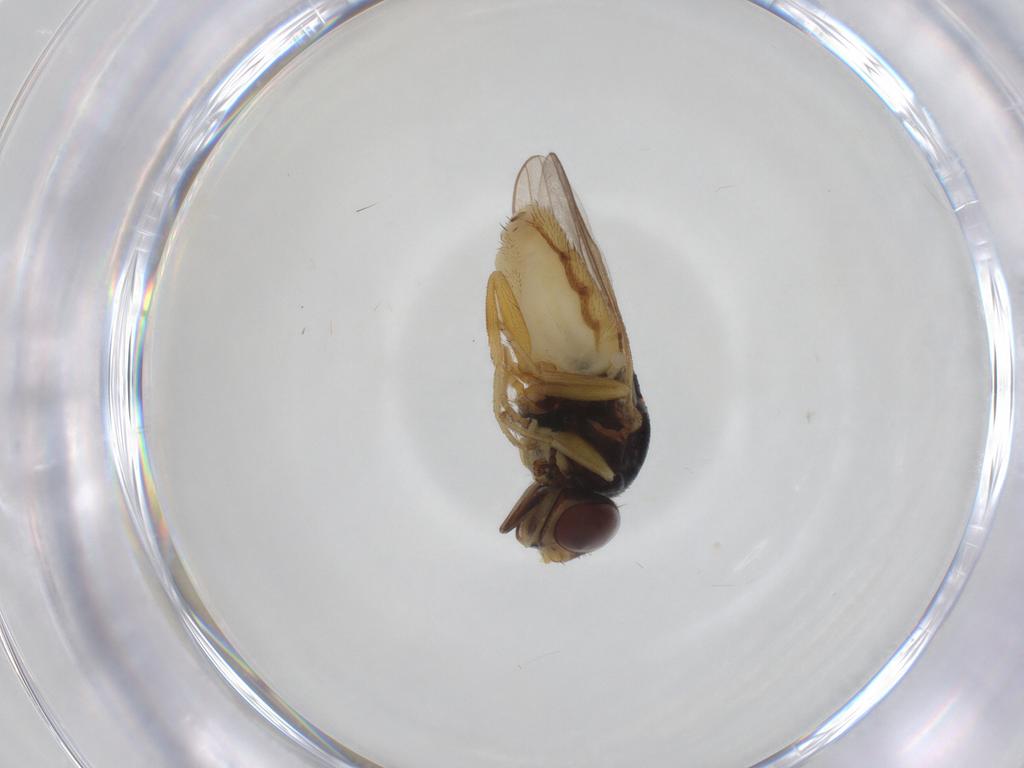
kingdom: Animalia
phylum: Arthropoda
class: Insecta
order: Diptera
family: Chloropidae
